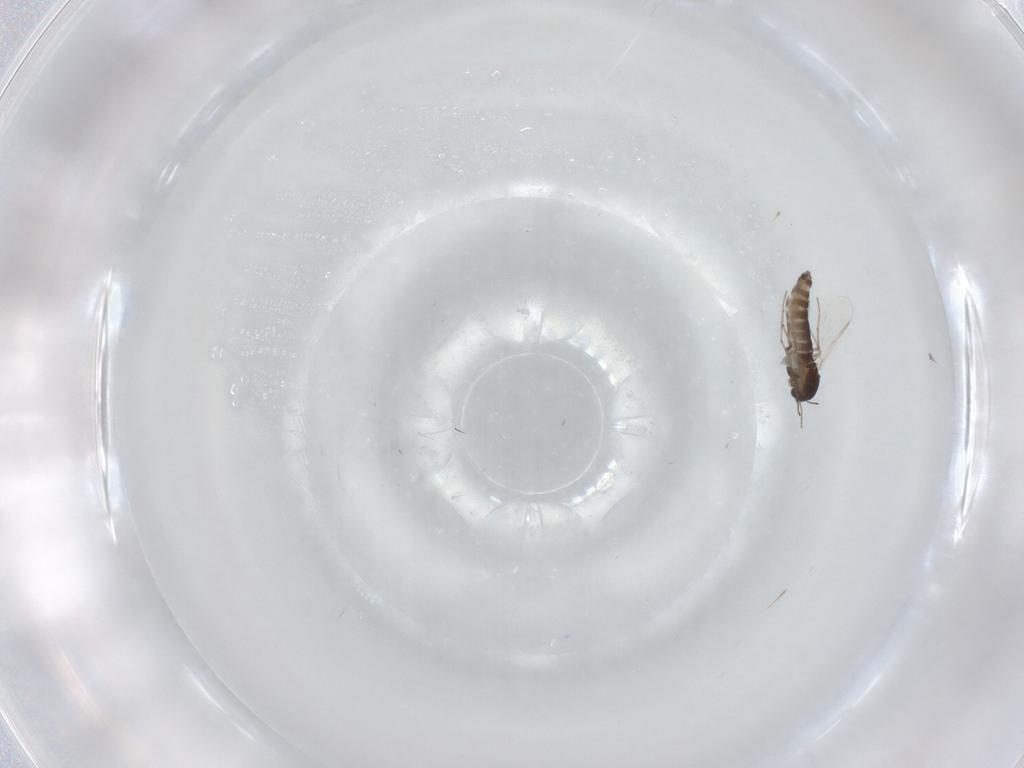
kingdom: Animalia
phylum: Arthropoda
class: Insecta
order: Diptera
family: Chironomidae
